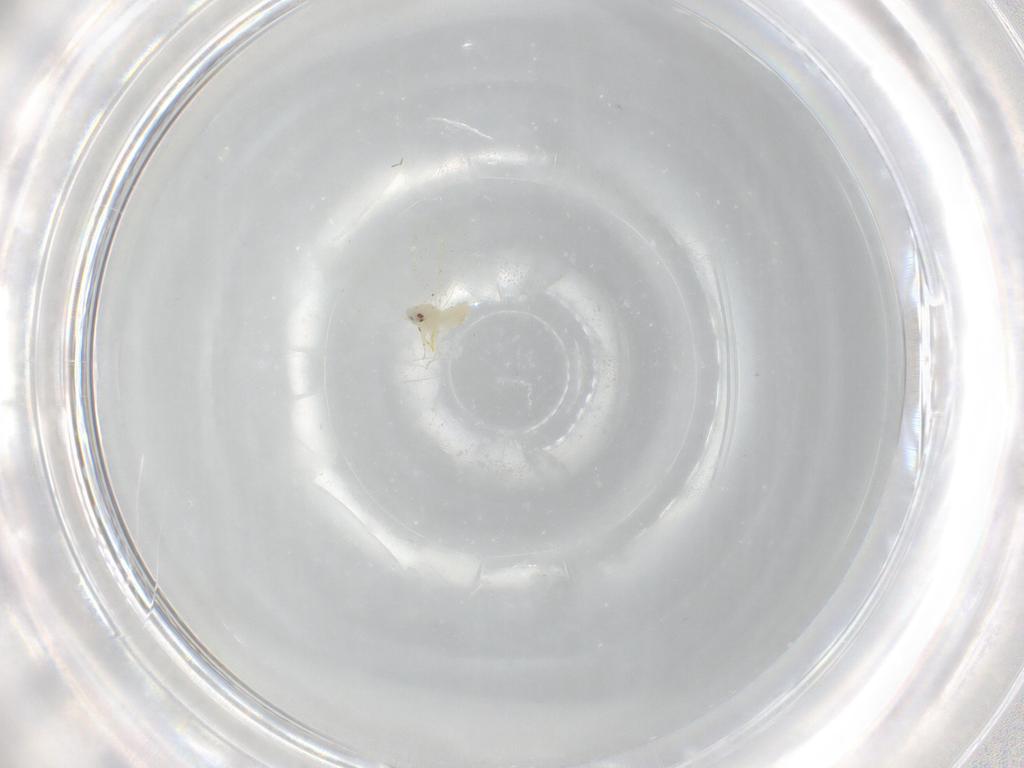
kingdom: Animalia
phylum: Arthropoda
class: Insecta
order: Hemiptera
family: Aleyrodidae
